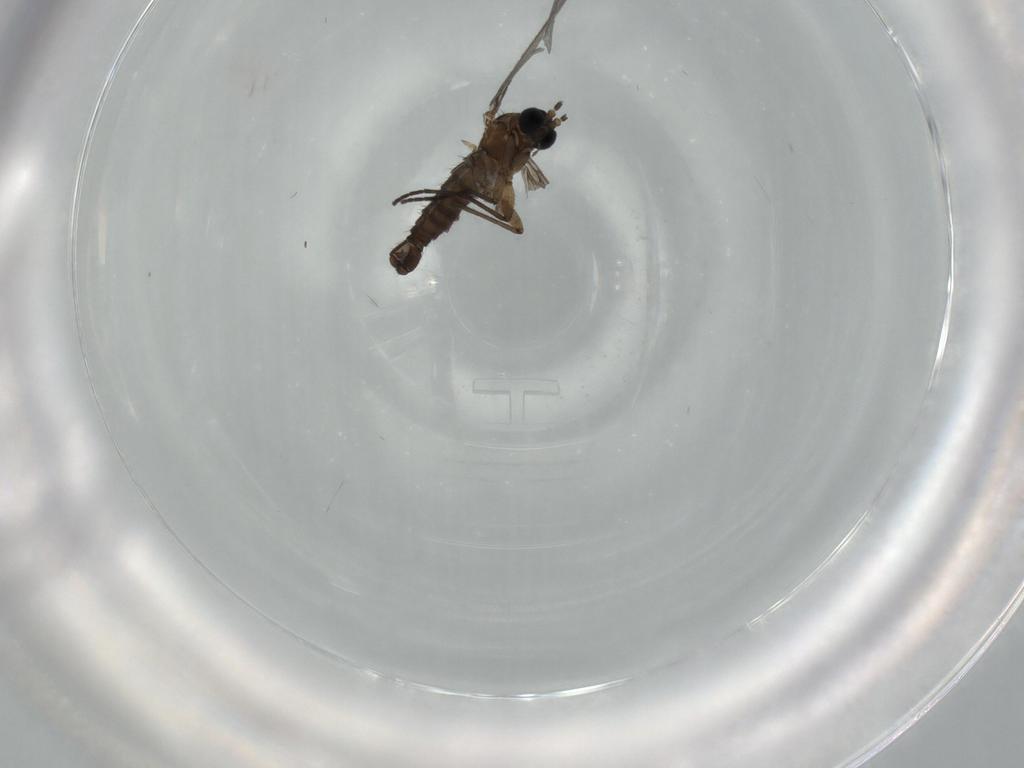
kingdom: Animalia
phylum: Arthropoda
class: Insecta
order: Diptera
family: Sciaridae
